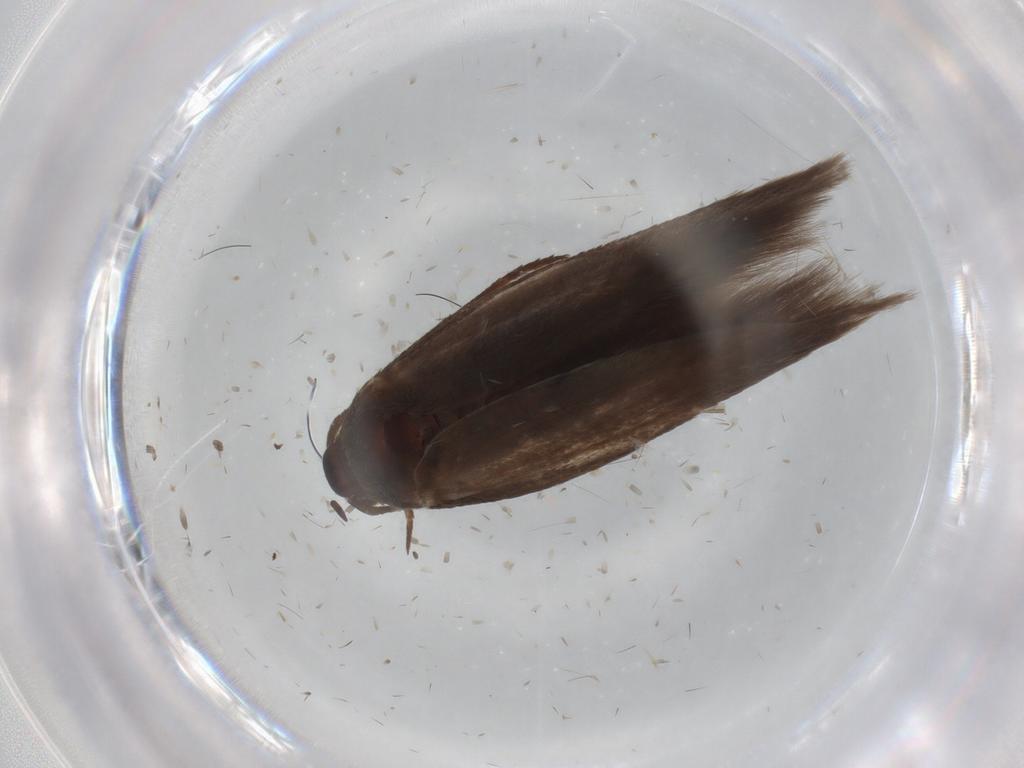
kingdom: Animalia
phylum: Arthropoda
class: Insecta
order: Lepidoptera
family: Scythrididae
